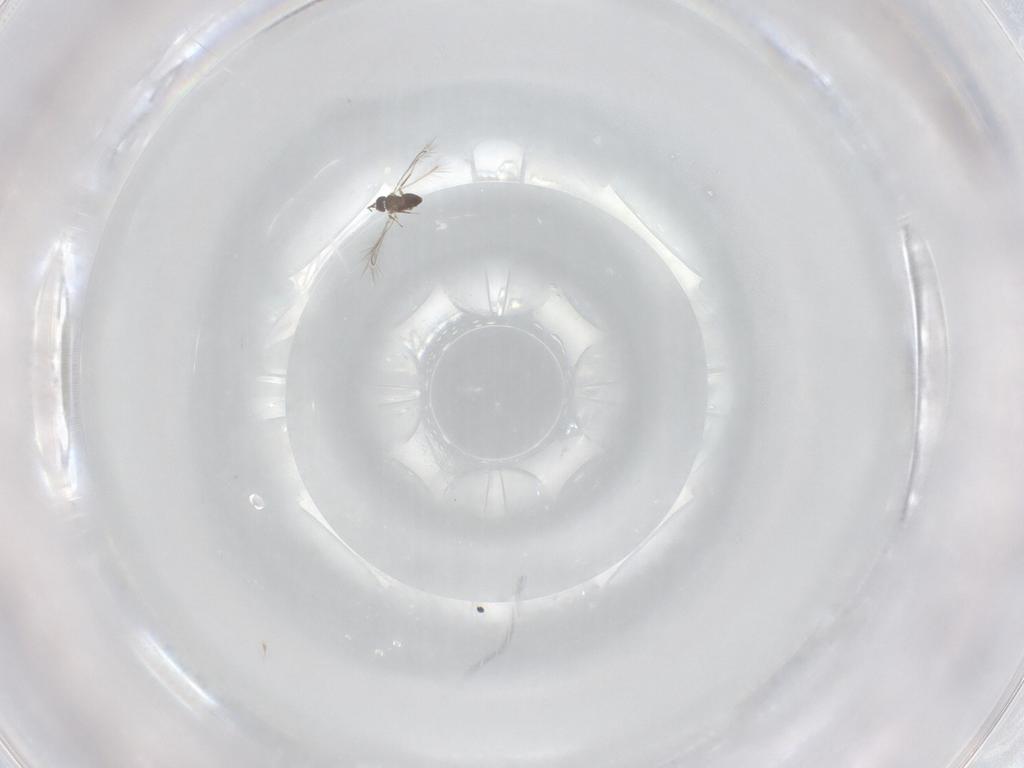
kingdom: Animalia
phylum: Arthropoda
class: Insecta
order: Hymenoptera
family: Mymaridae
